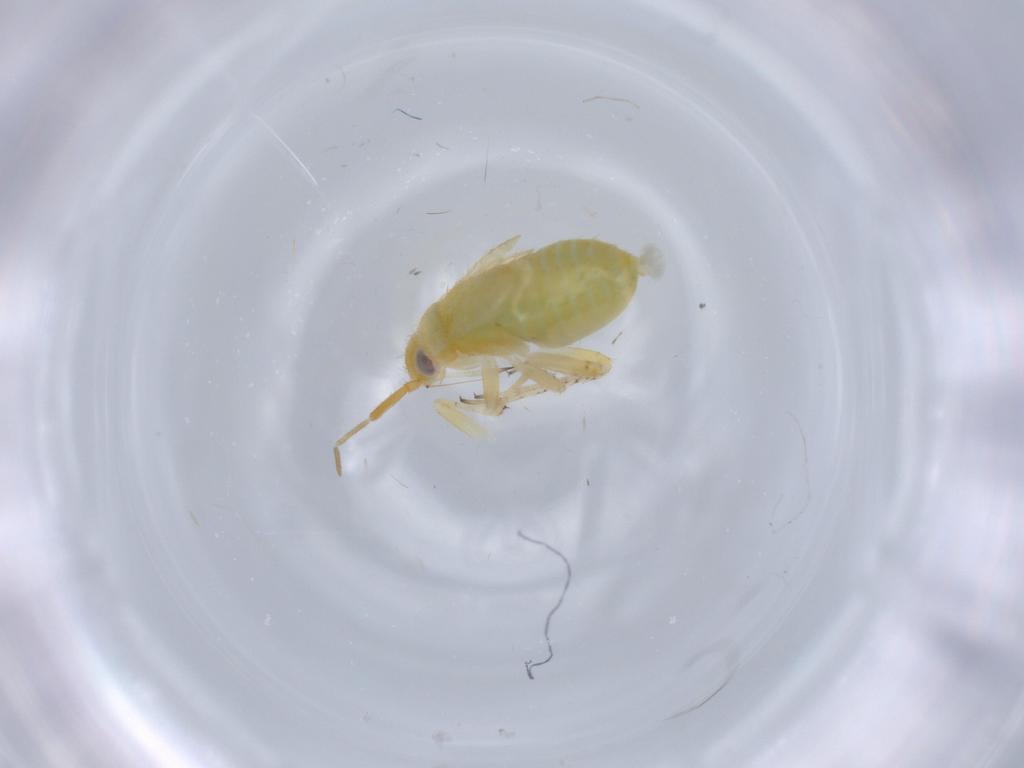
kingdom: Animalia
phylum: Arthropoda
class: Insecta
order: Hemiptera
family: Miridae
